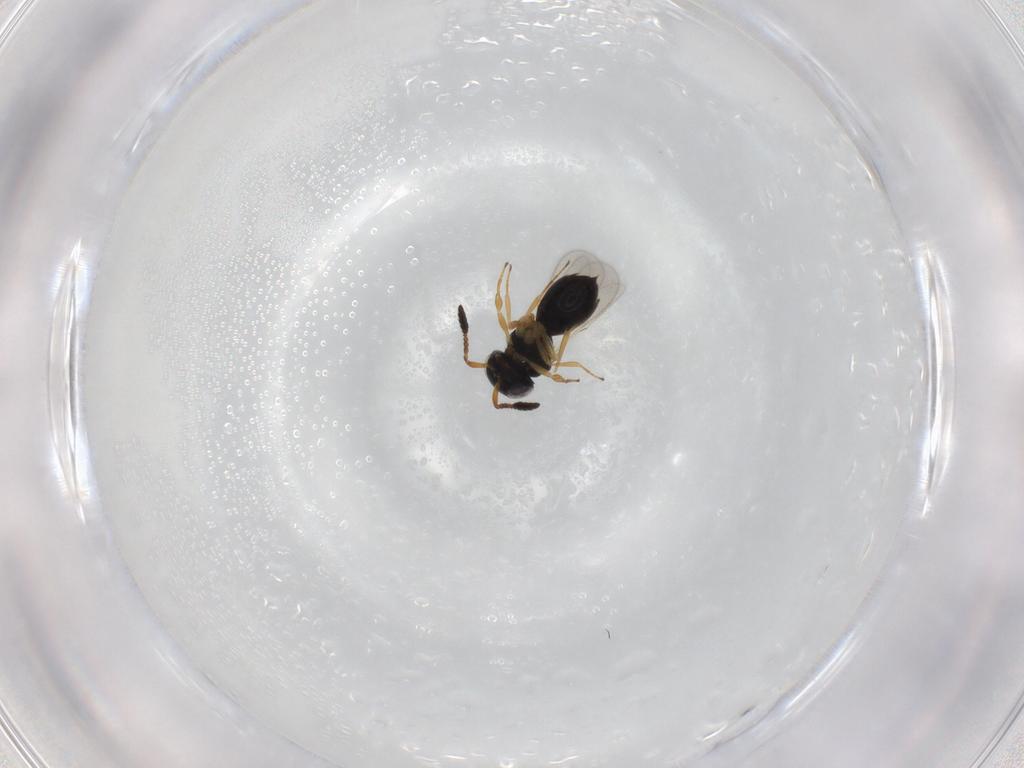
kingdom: Animalia
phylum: Arthropoda
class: Insecta
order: Hymenoptera
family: Scelionidae
